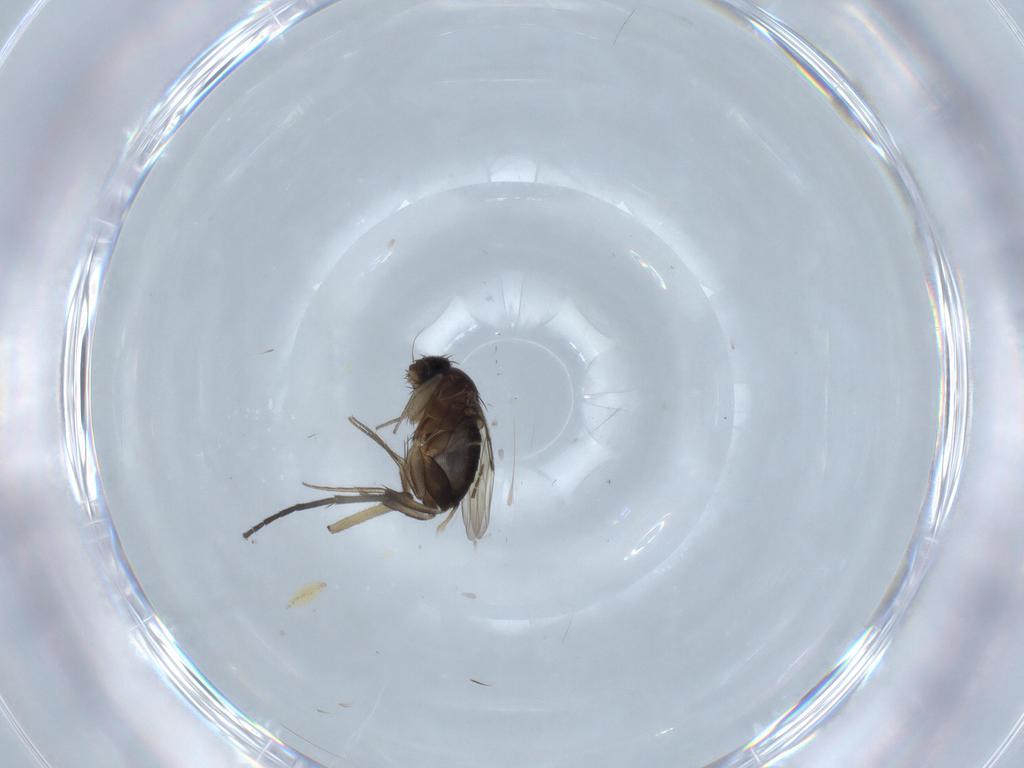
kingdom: Animalia
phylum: Arthropoda
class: Insecta
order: Diptera
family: Sciaridae
